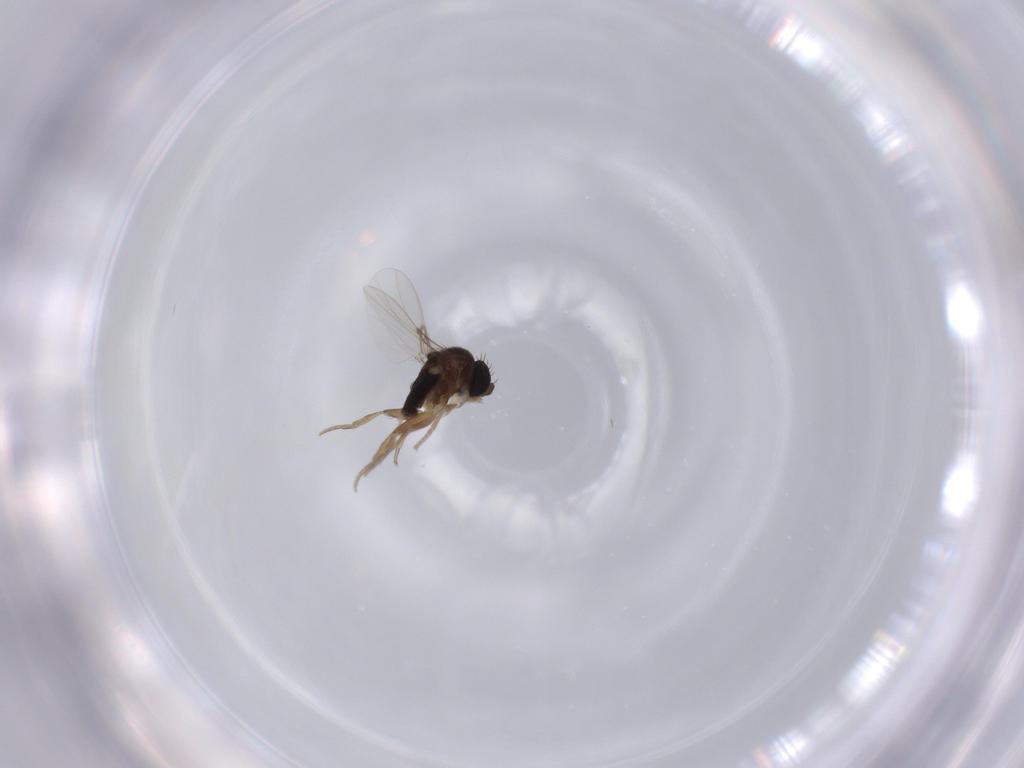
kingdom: Animalia
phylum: Arthropoda
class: Insecta
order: Diptera
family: Phoridae
